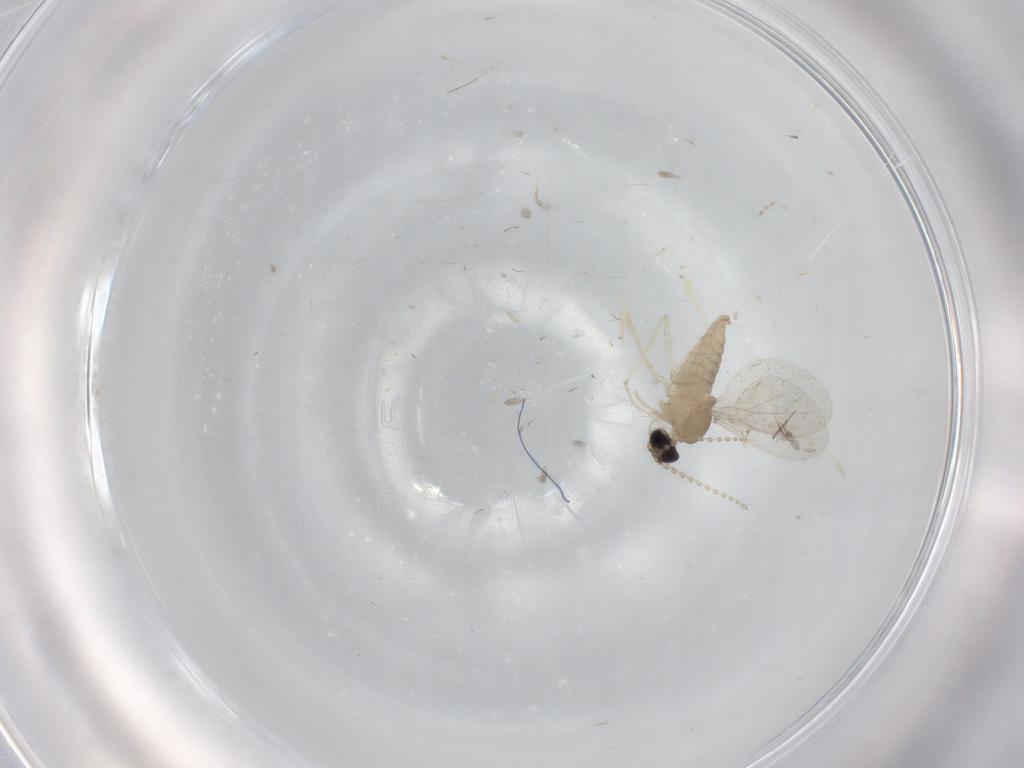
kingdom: Animalia
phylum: Arthropoda
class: Insecta
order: Diptera
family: Cecidomyiidae
